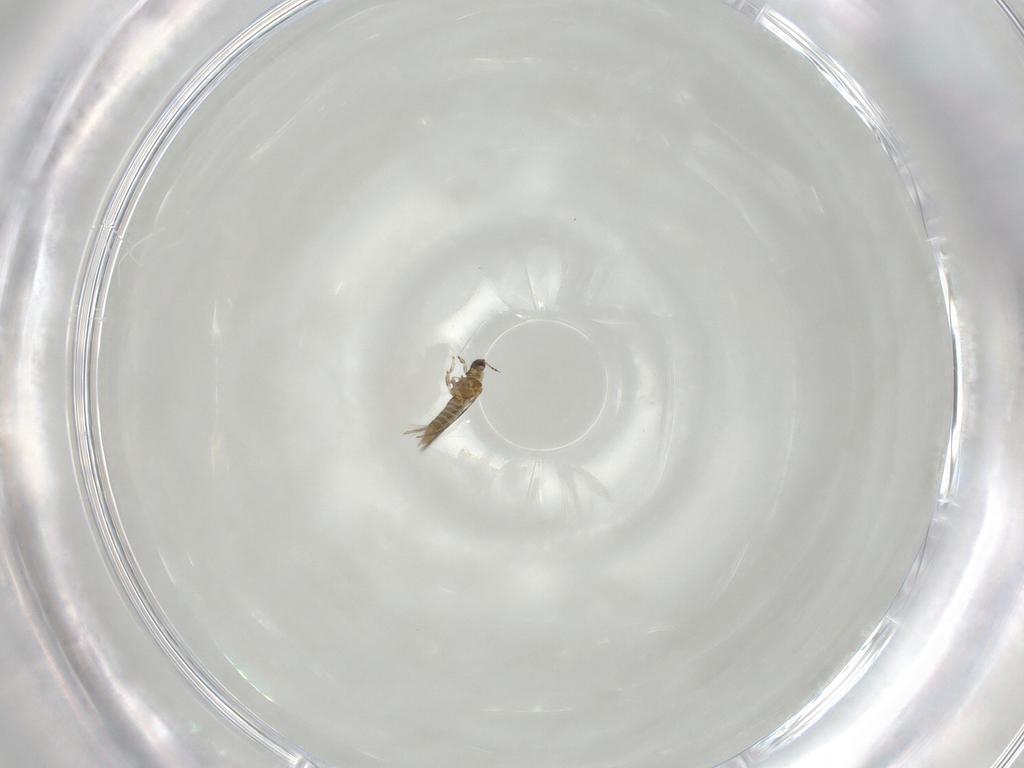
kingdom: Animalia
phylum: Arthropoda
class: Insecta
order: Thysanoptera
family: Thripidae
